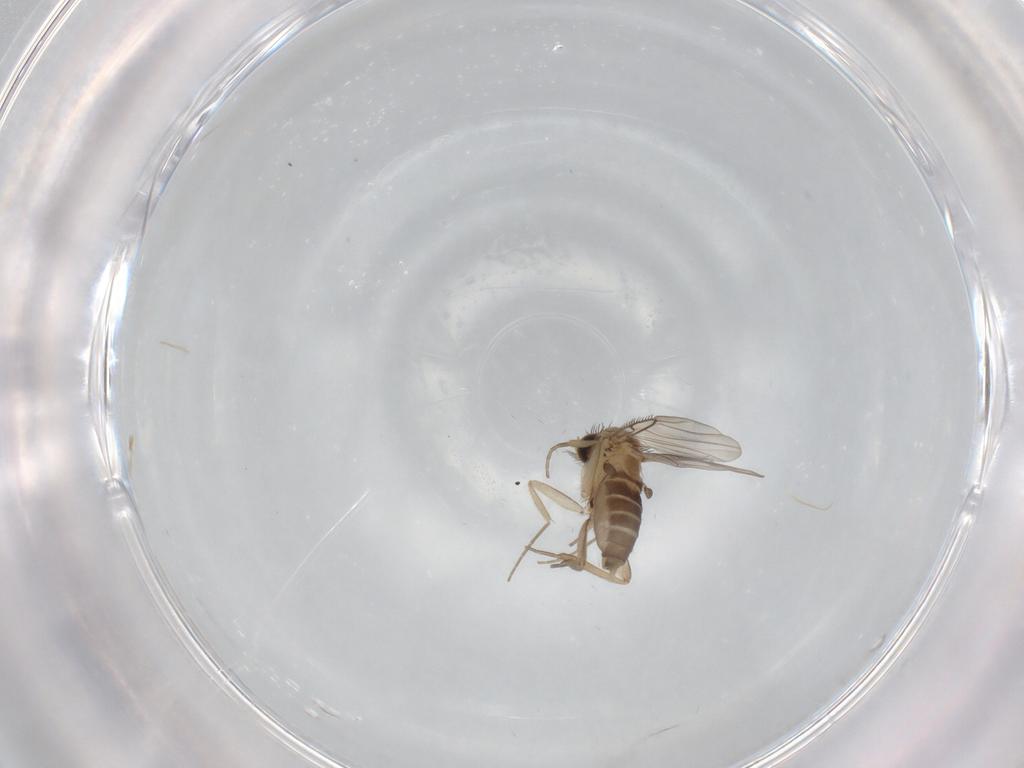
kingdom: Animalia
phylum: Arthropoda
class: Insecta
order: Diptera
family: Phoridae
